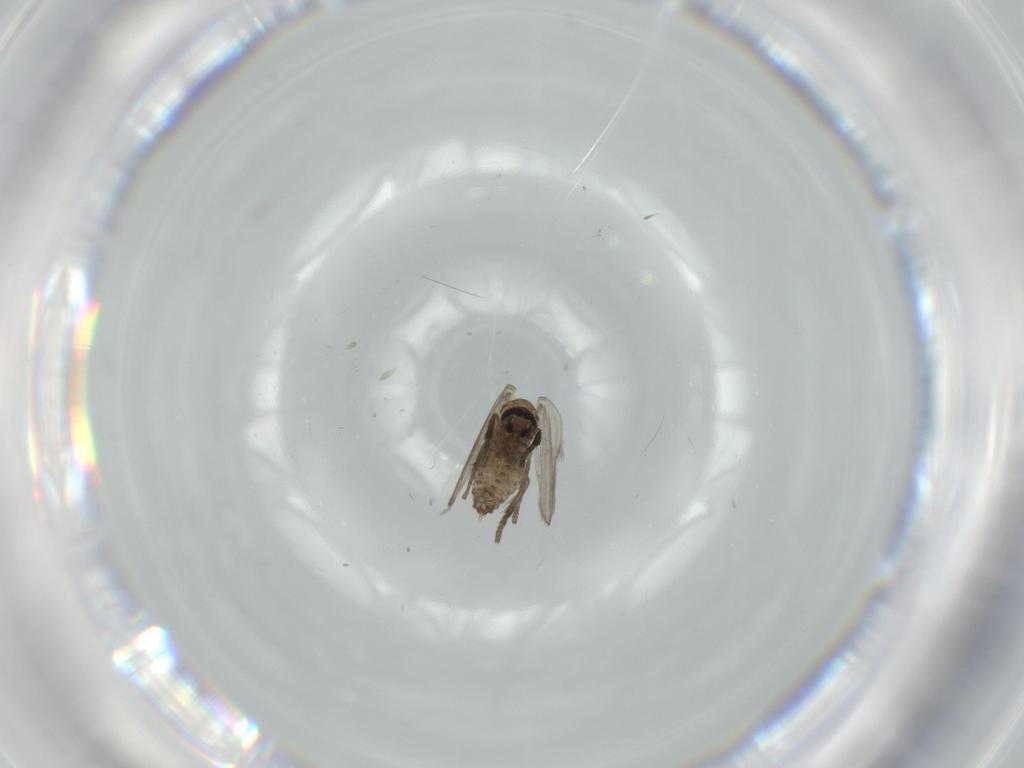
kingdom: Animalia
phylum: Arthropoda
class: Insecta
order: Diptera
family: Psychodidae
